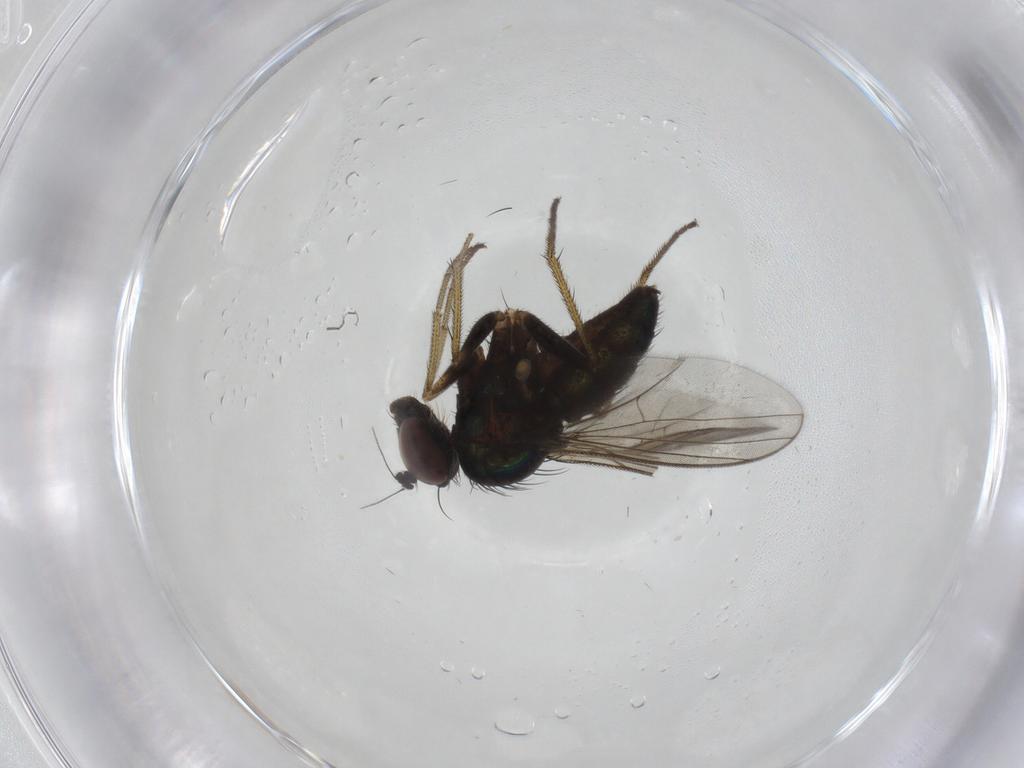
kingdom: Animalia
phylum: Arthropoda
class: Insecta
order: Diptera
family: Dolichopodidae
